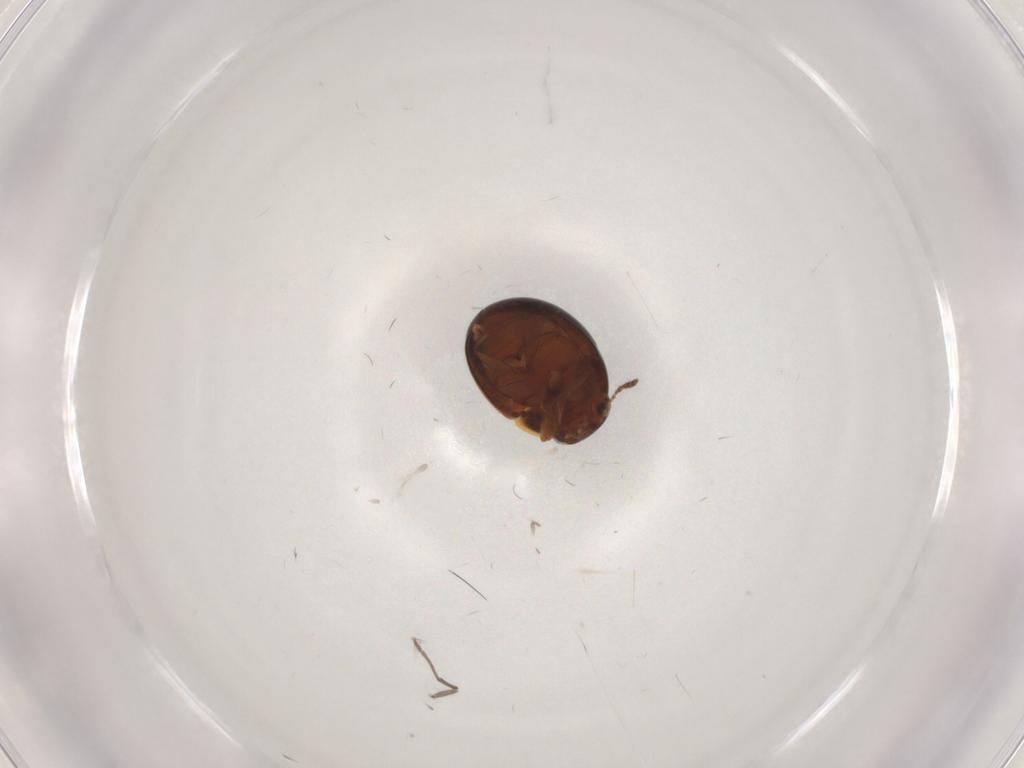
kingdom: Animalia
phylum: Arthropoda
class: Insecta
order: Coleoptera
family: Leiodidae
